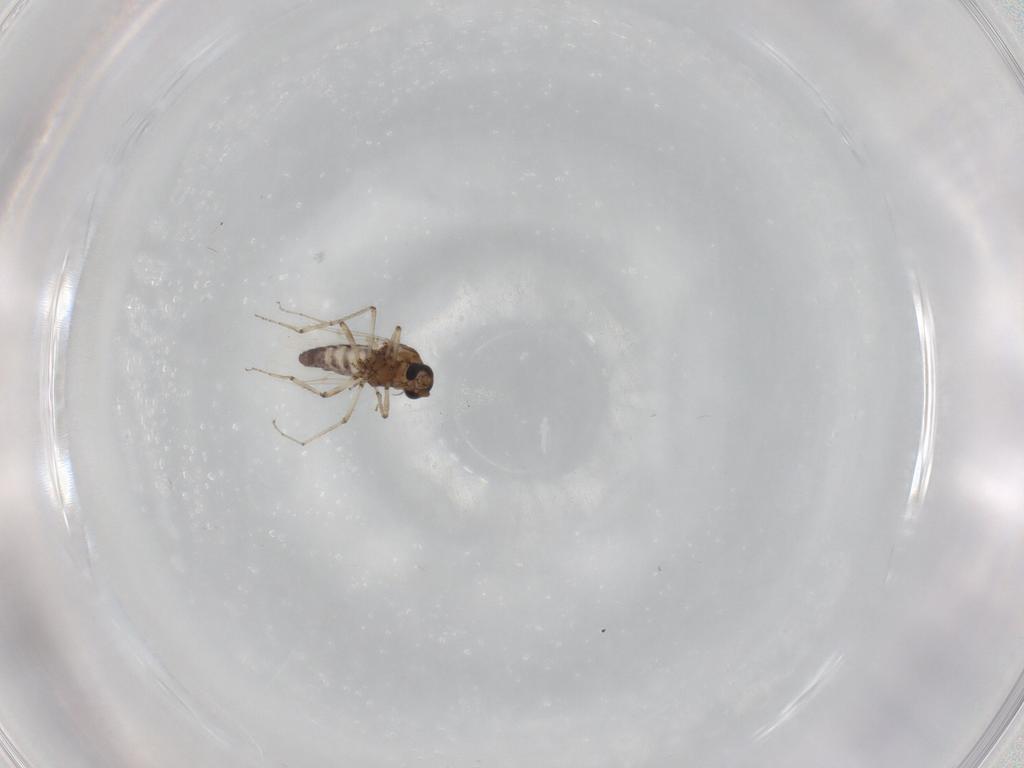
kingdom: Animalia
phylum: Arthropoda
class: Insecta
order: Diptera
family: Ceratopogonidae
